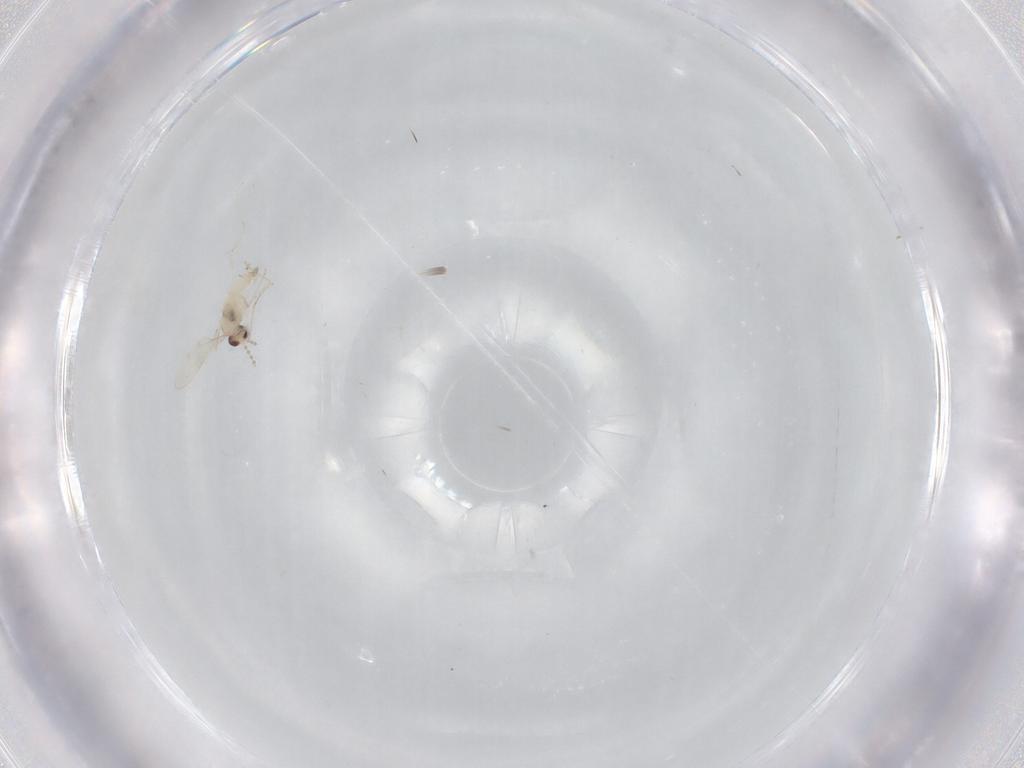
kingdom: Animalia
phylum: Arthropoda
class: Insecta
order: Diptera
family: Cecidomyiidae
